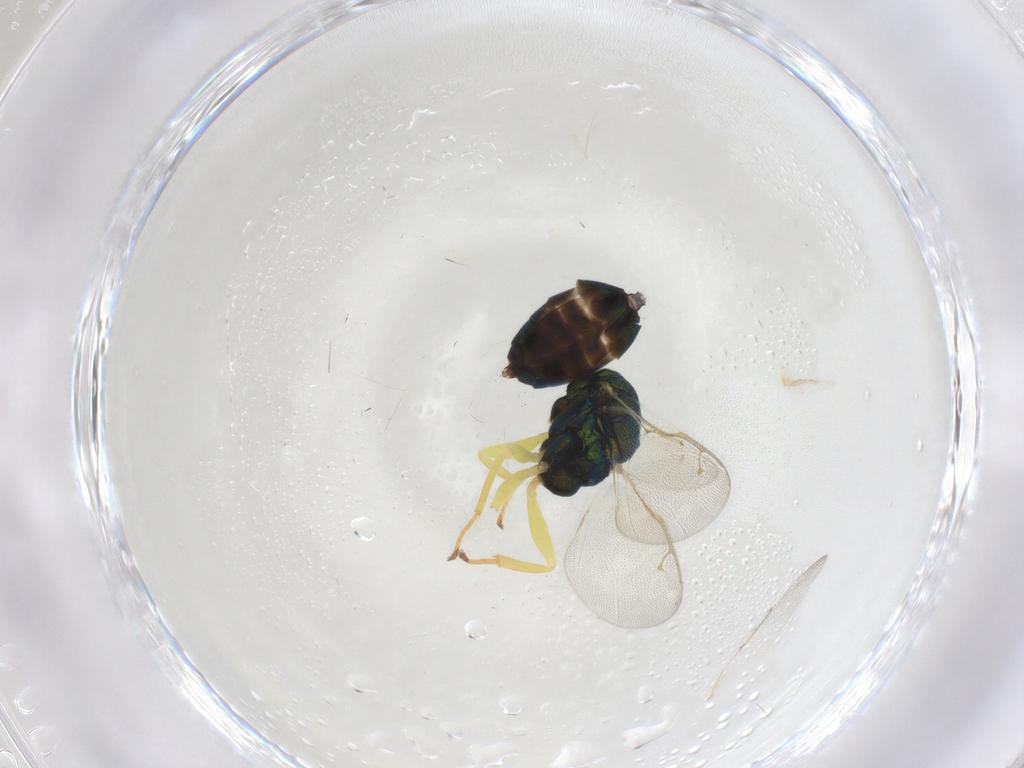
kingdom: Animalia
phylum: Arthropoda
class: Insecta
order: Hymenoptera
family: Pteromalidae
